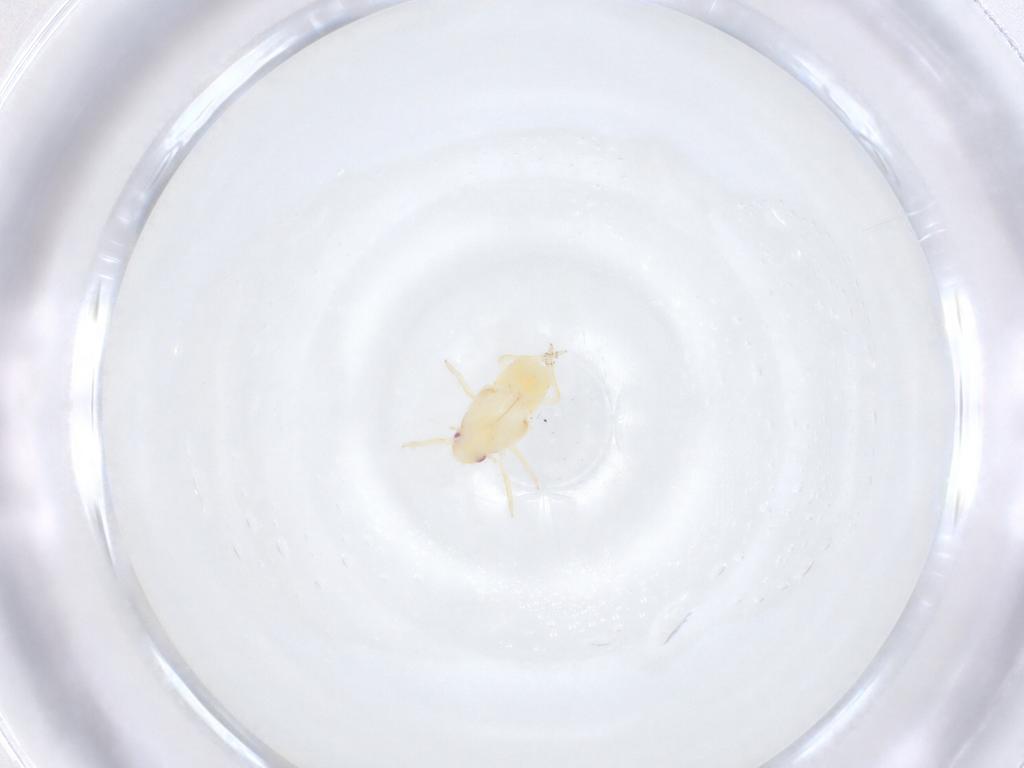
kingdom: Animalia
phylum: Arthropoda
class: Insecta
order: Hemiptera
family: Flatidae
